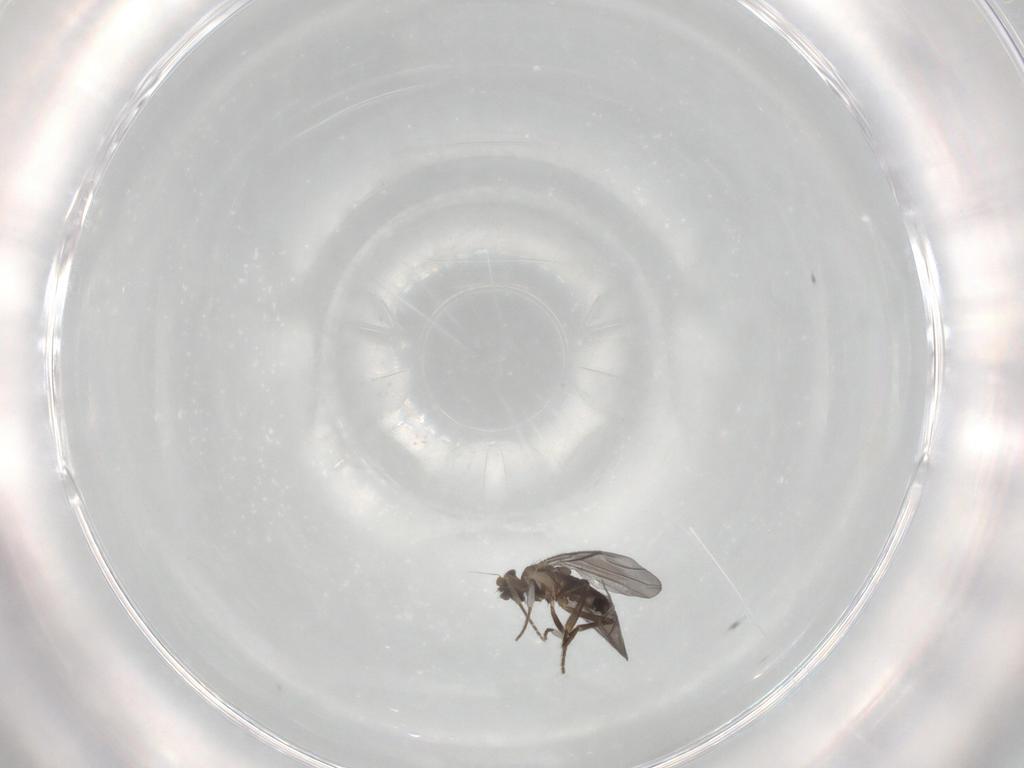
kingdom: Animalia
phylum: Arthropoda
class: Insecta
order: Diptera
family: Phoridae
